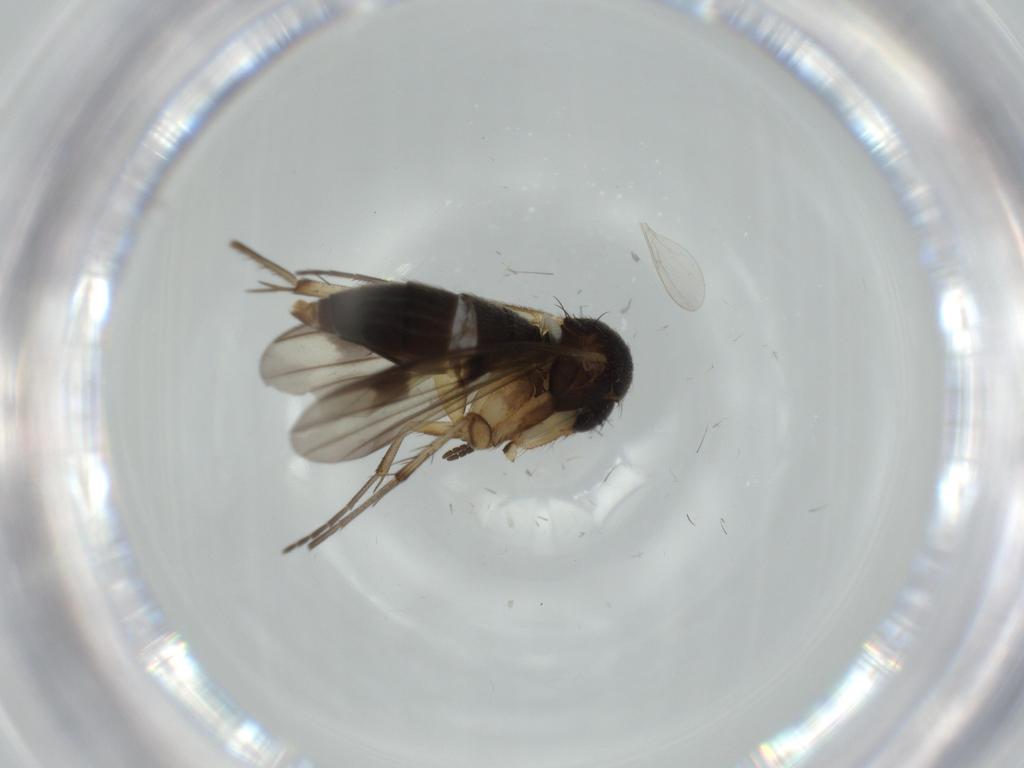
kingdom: Animalia
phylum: Arthropoda
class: Insecta
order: Diptera
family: Mycetophilidae
